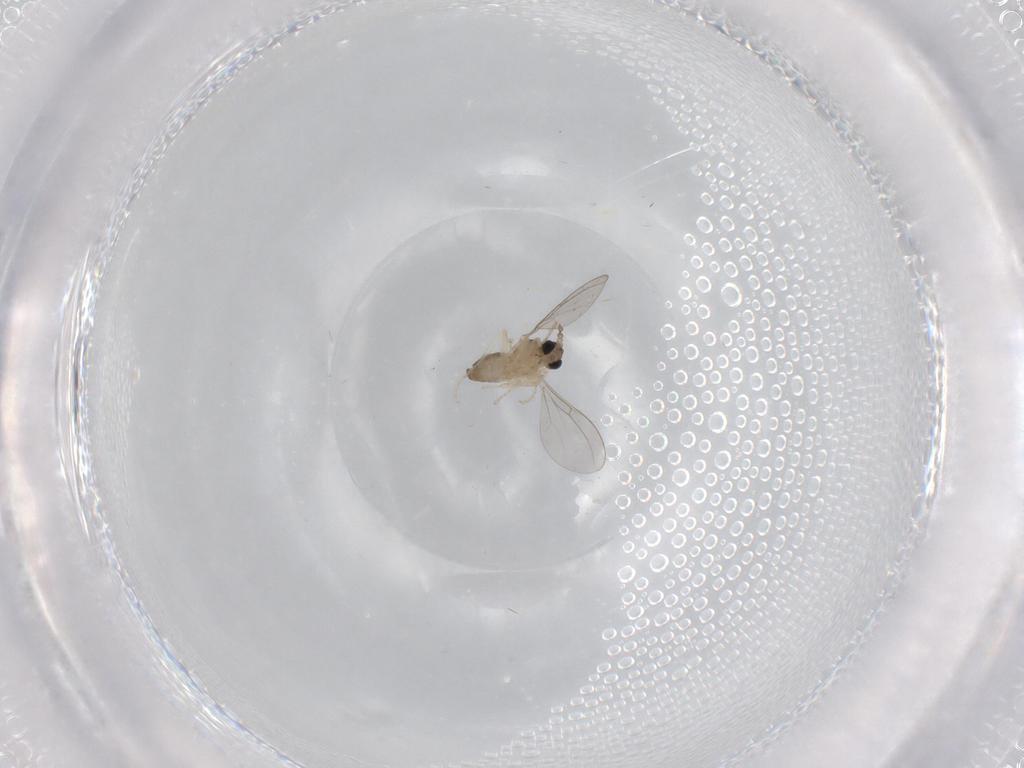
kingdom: Animalia
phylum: Arthropoda
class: Insecta
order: Diptera
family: Cecidomyiidae
